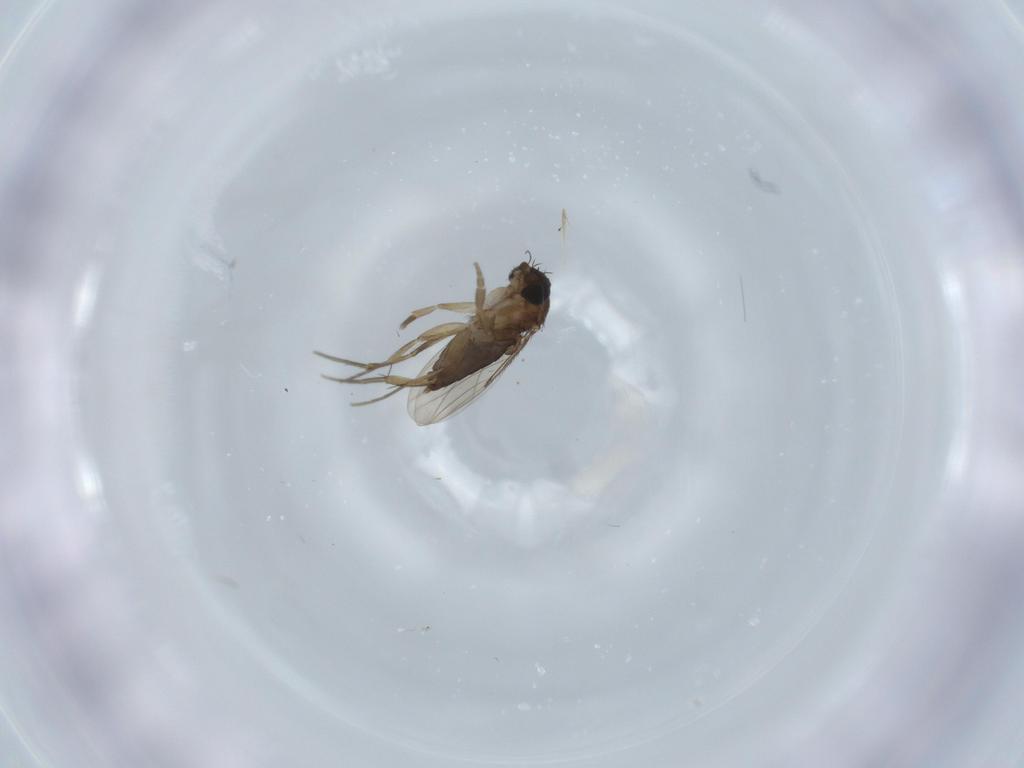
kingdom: Animalia
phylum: Arthropoda
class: Insecta
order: Diptera
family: Phoridae
